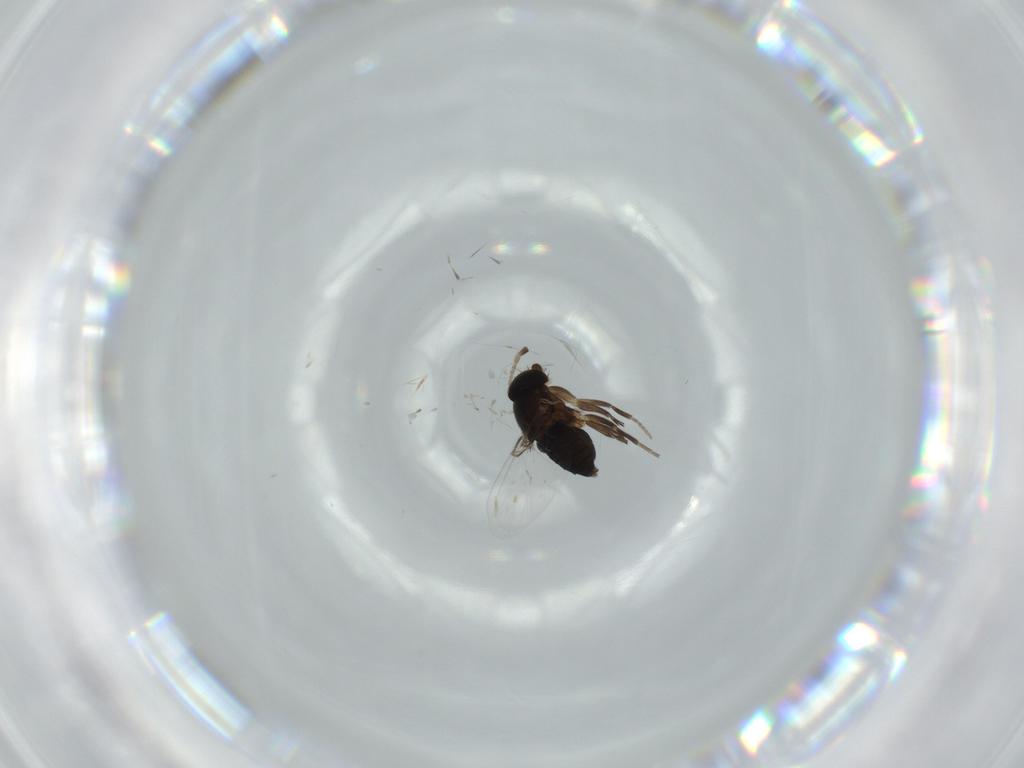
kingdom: Animalia
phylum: Arthropoda
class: Insecta
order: Diptera
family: Phoridae
